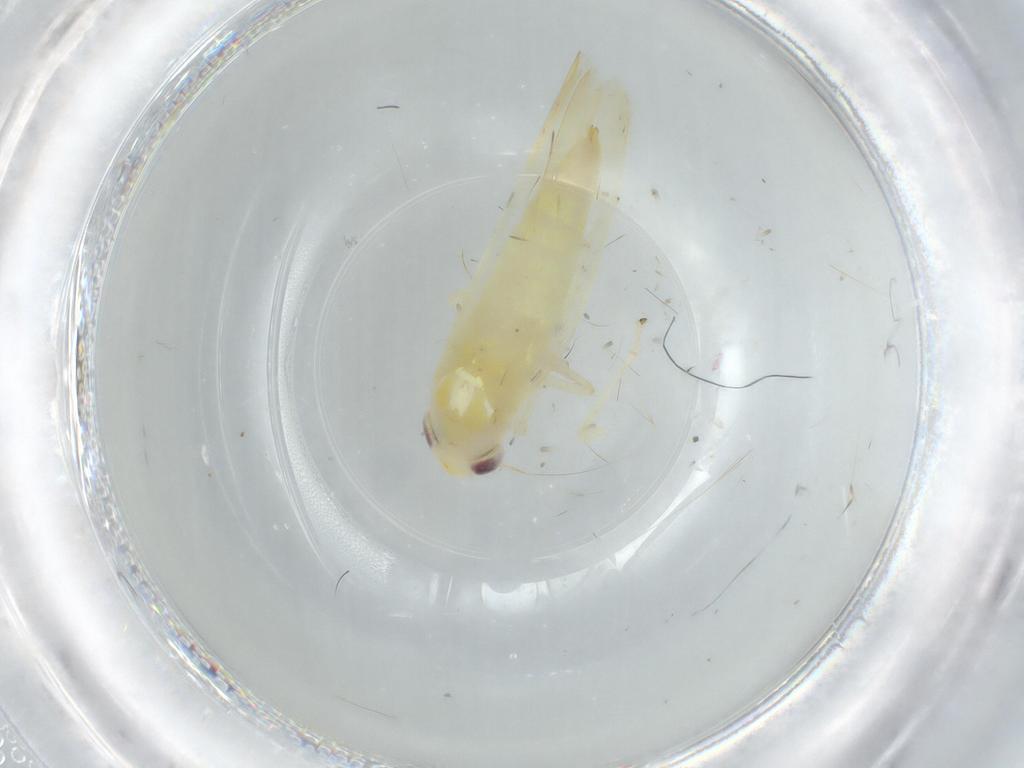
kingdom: Animalia
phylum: Arthropoda
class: Insecta
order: Hemiptera
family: Cicadellidae
